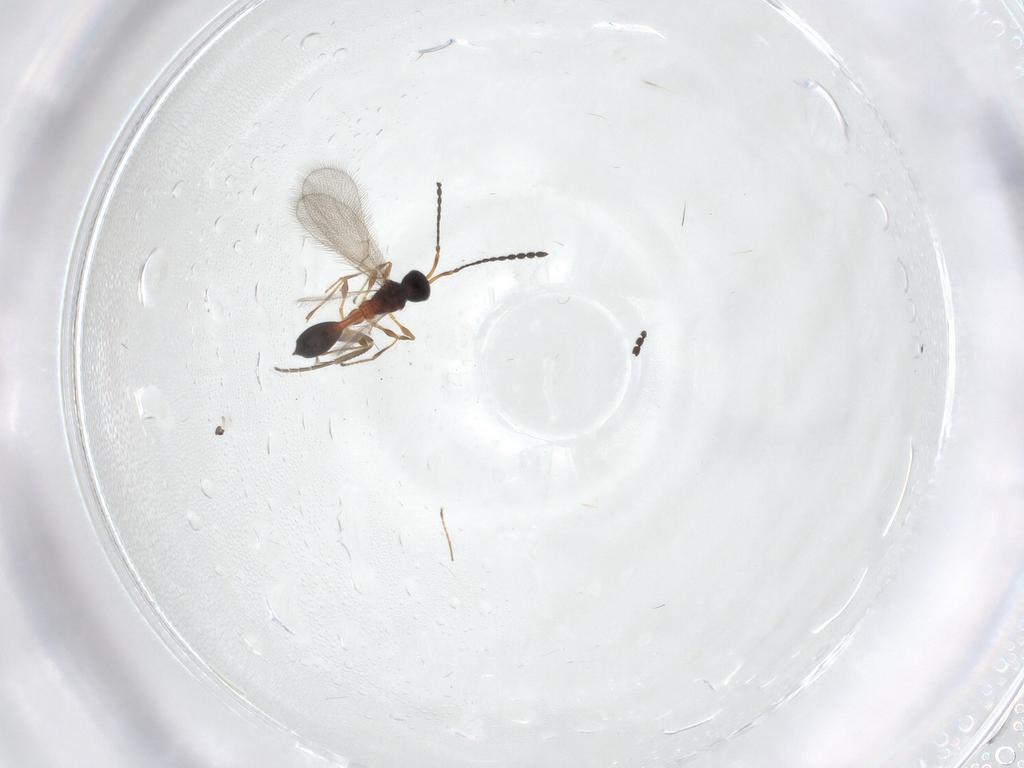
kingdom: Animalia
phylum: Arthropoda
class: Insecta
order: Hymenoptera
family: Diapriidae
